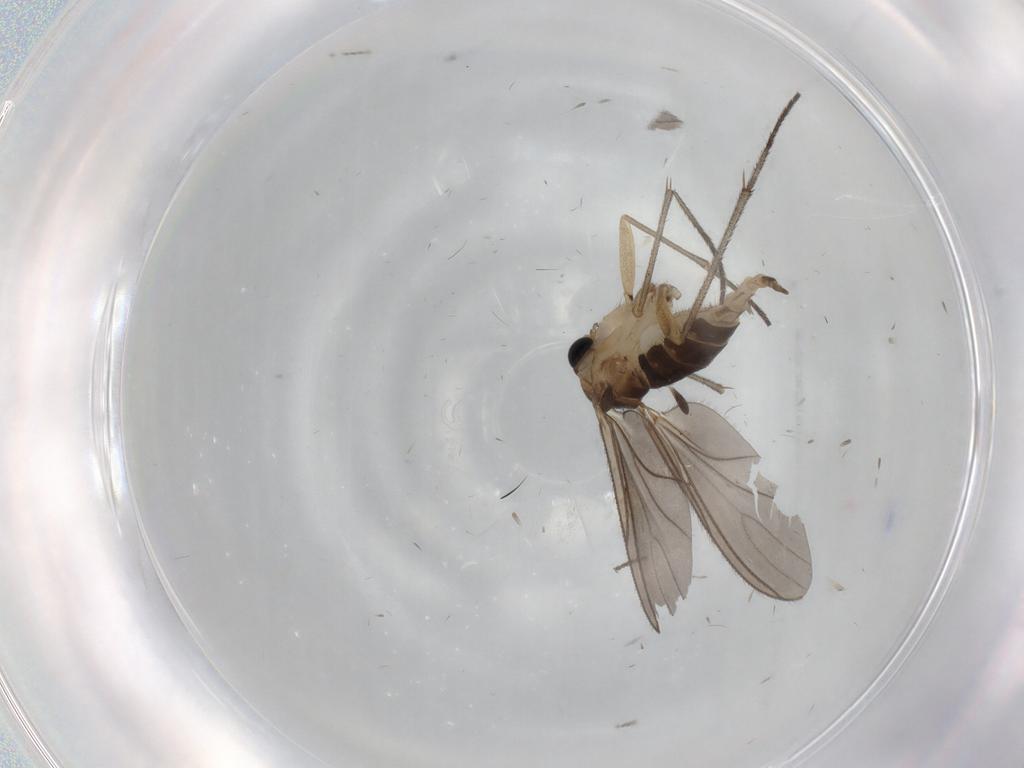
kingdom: Animalia
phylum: Arthropoda
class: Insecta
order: Diptera
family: Sciaridae
